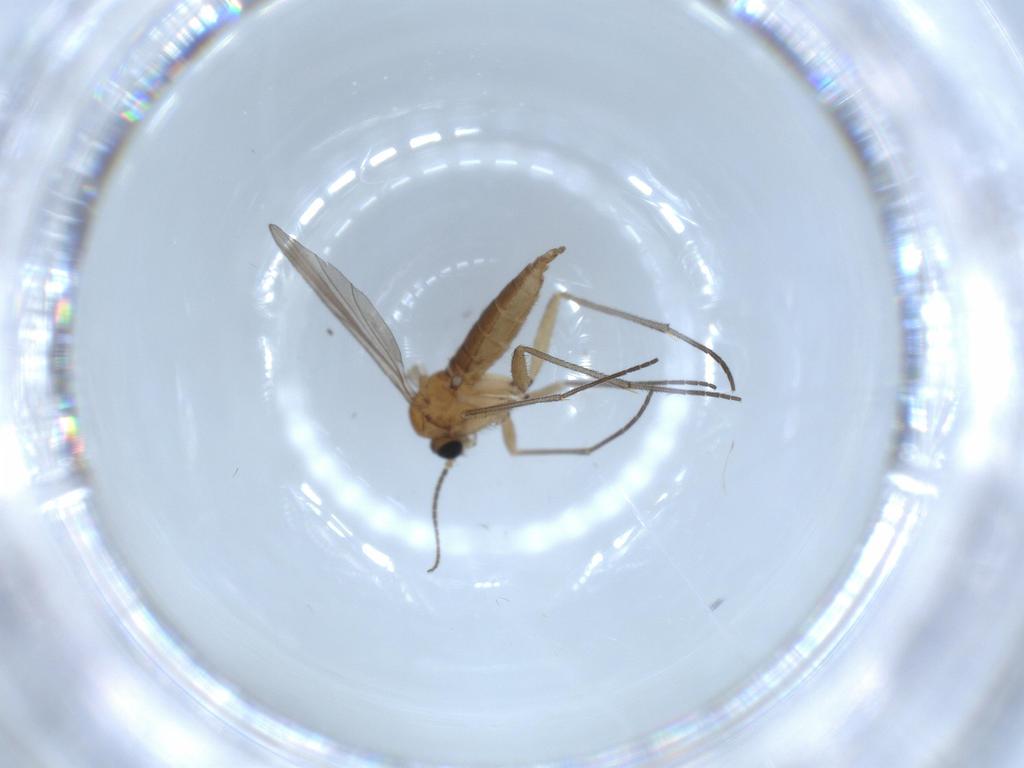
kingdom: Animalia
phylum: Arthropoda
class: Insecta
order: Diptera
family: Sciaridae
